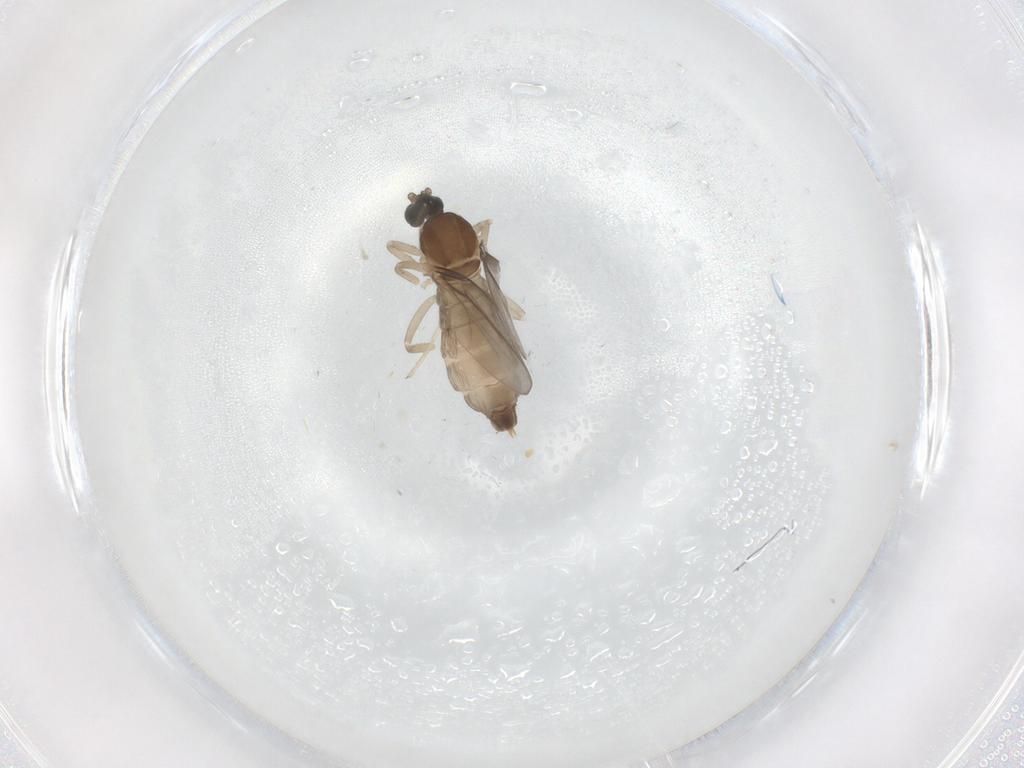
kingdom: Animalia
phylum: Arthropoda
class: Insecta
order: Diptera
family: Cecidomyiidae
